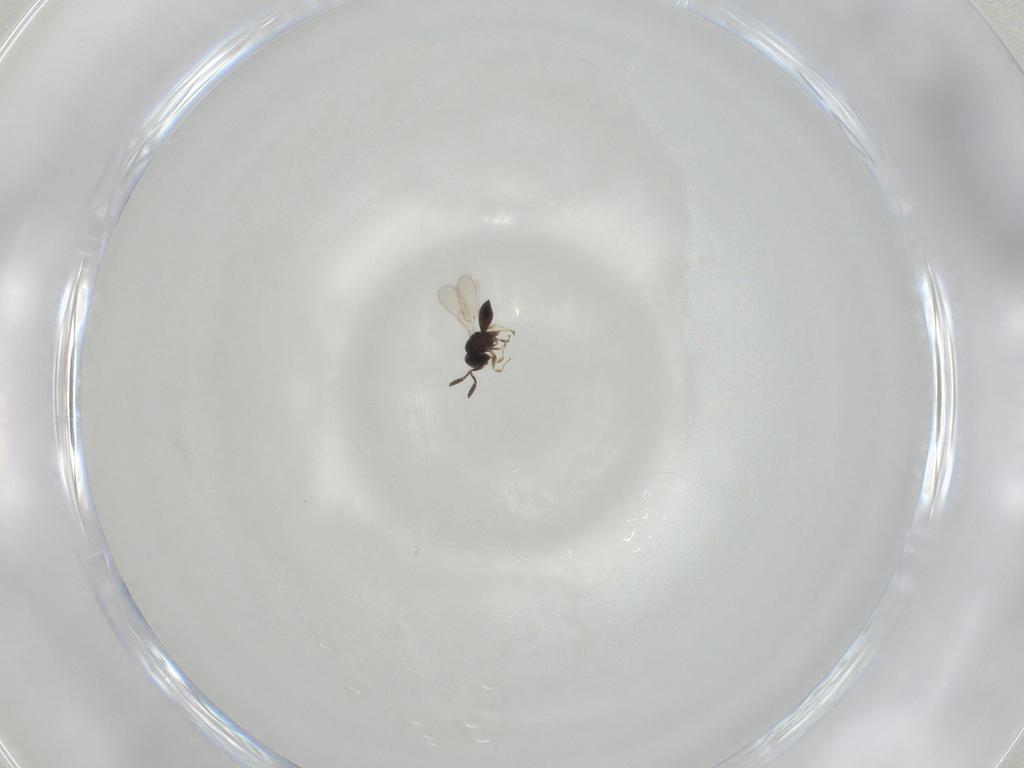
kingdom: Animalia
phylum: Arthropoda
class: Insecta
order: Hymenoptera
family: Scelionidae
